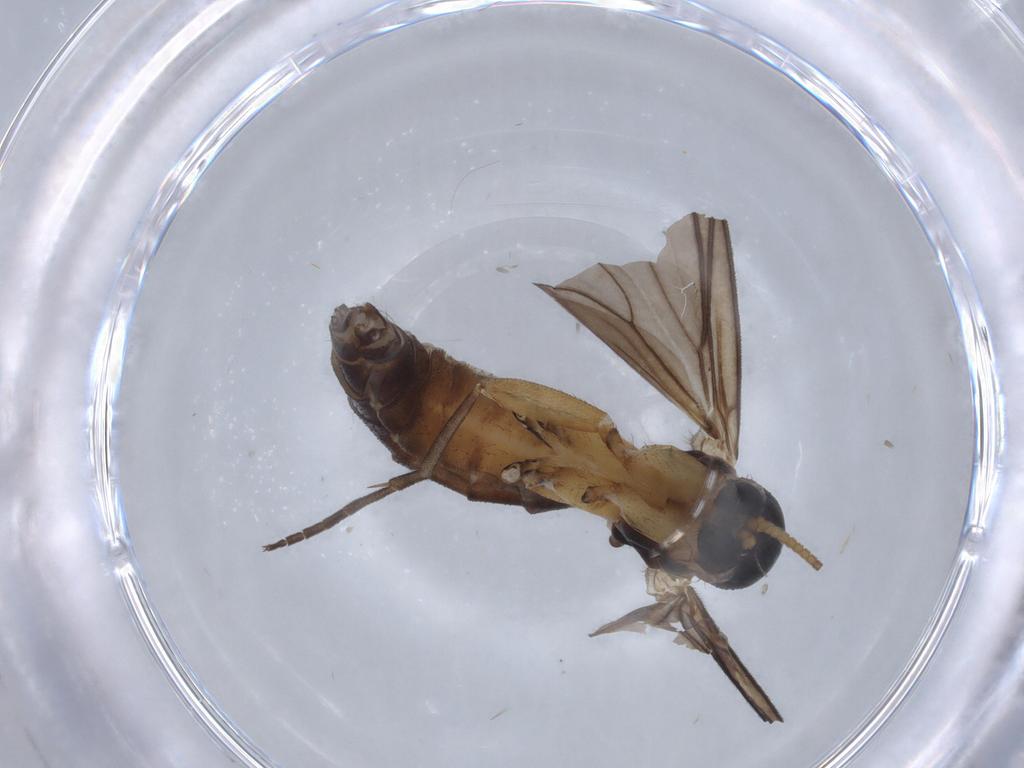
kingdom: Animalia
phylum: Arthropoda
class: Insecta
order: Diptera
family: Mycetophilidae
